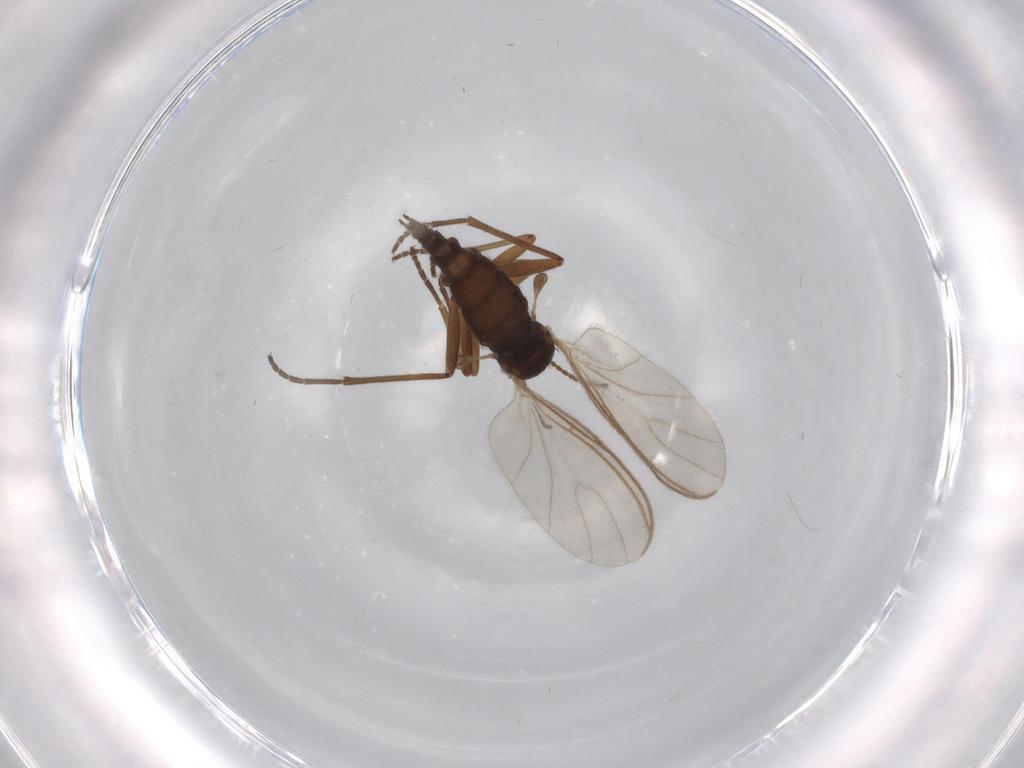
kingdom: Animalia
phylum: Arthropoda
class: Insecta
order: Diptera
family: Sciaridae
